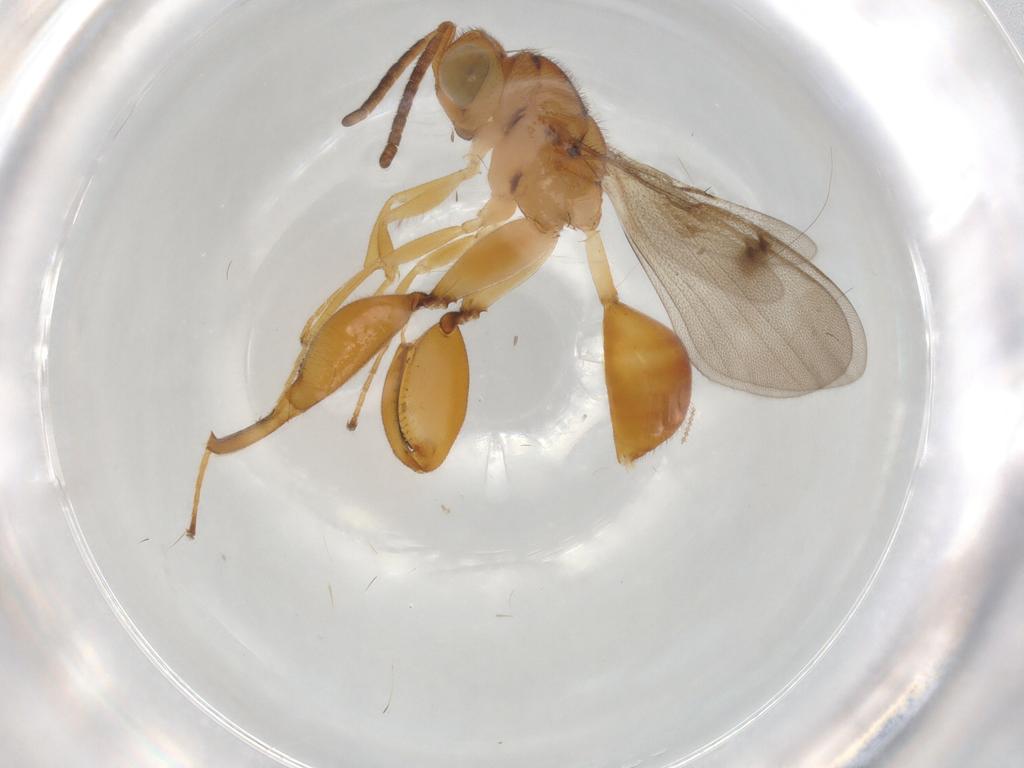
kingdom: Animalia
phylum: Arthropoda
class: Insecta
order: Hymenoptera
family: Chalcididae
